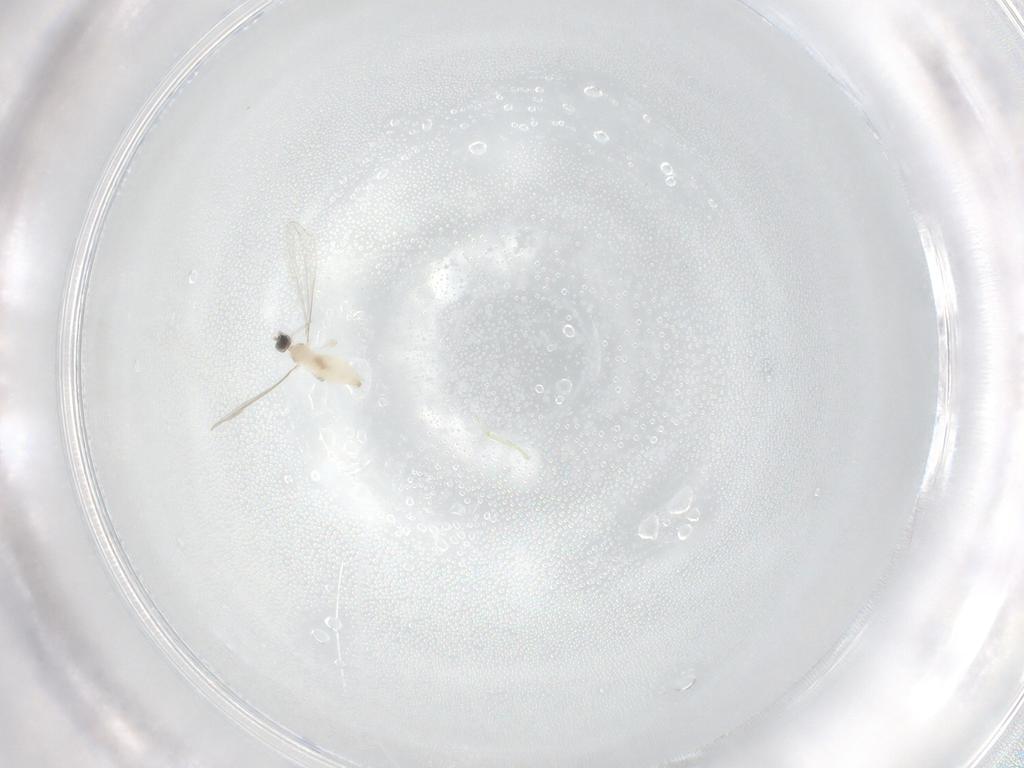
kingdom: Animalia
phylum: Arthropoda
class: Insecta
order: Diptera
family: Cecidomyiidae
